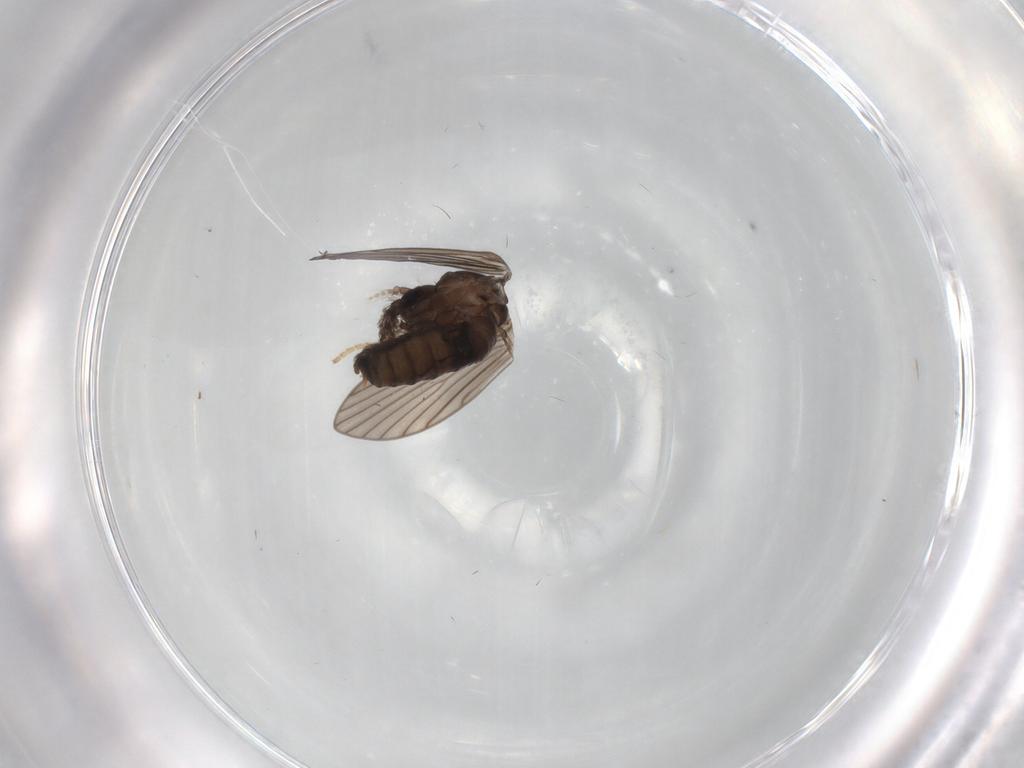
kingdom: Animalia
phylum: Arthropoda
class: Insecta
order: Diptera
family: Psychodidae
